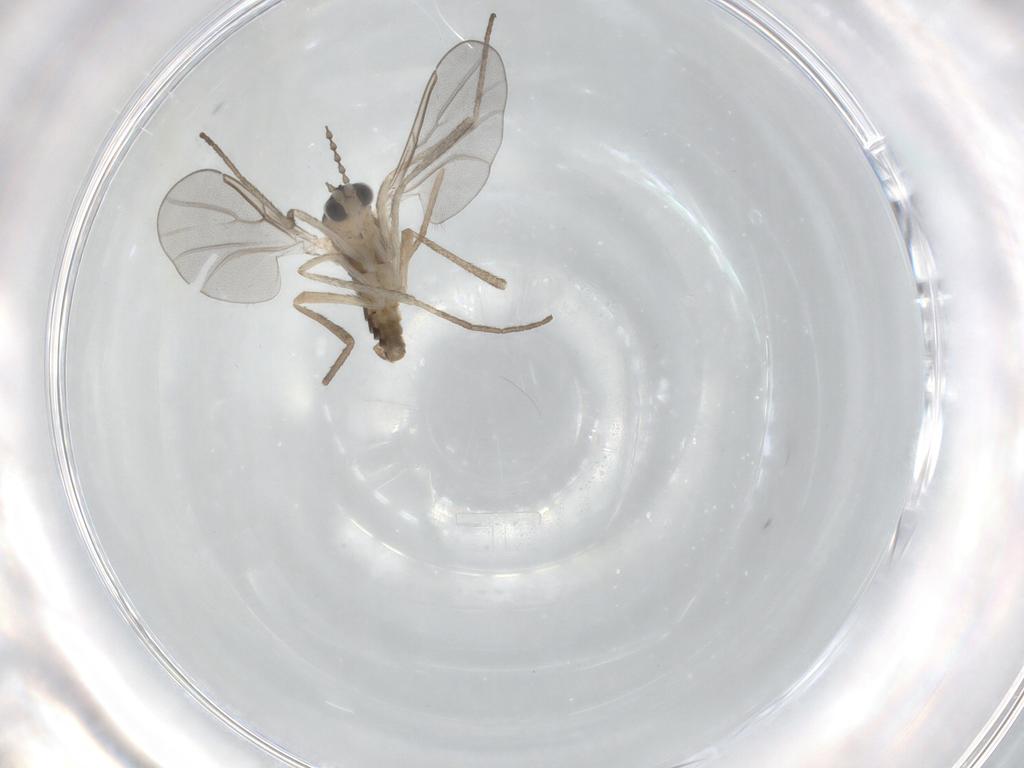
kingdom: Animalia
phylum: Arthropoda
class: Insecta
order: Diptera
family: Cecidomyiidae
